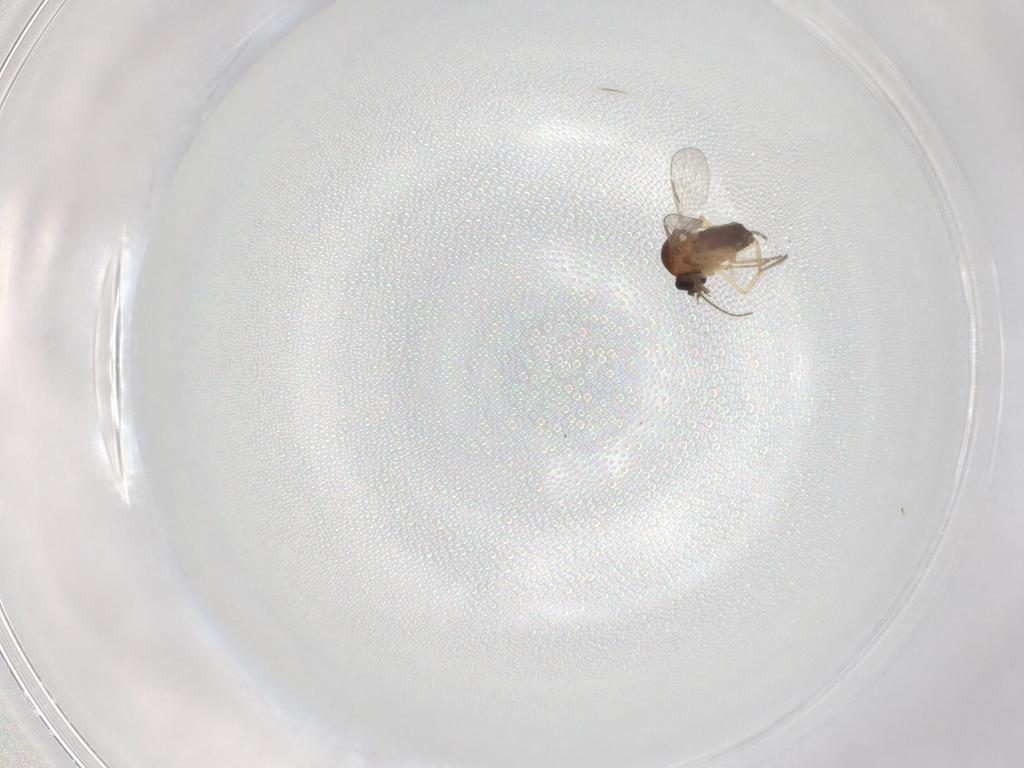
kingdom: Animalia
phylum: Arthropoda
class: Insecta
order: Diptera
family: Ceratopogonidae
